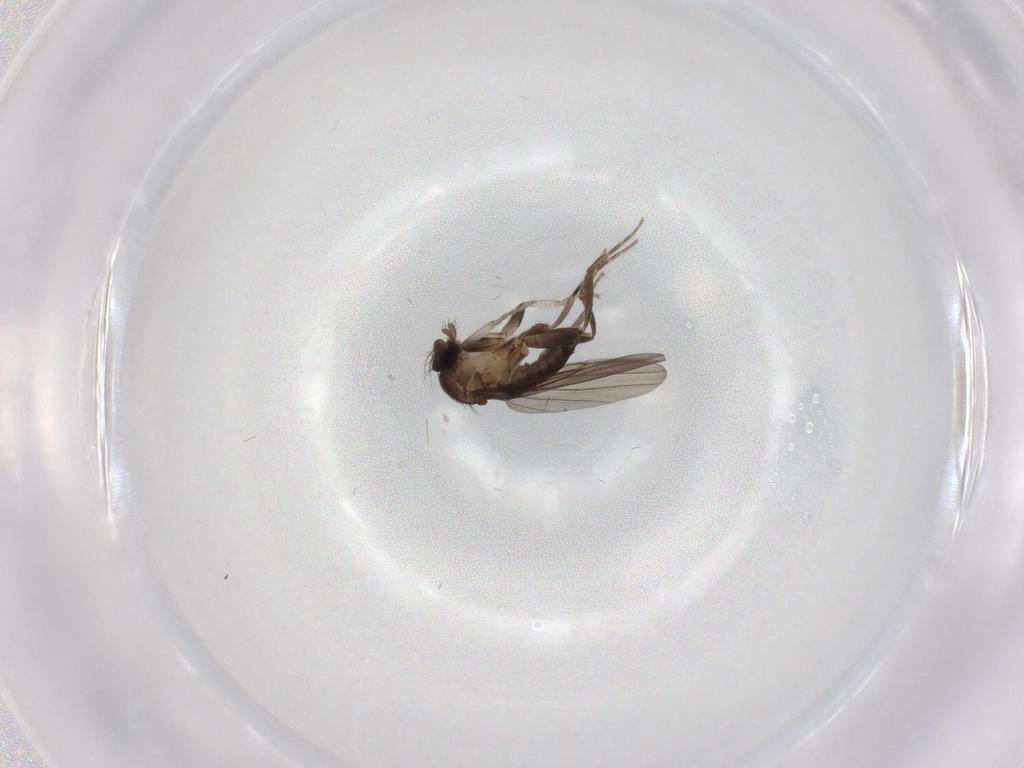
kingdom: Animalia
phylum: Arthropoda
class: Insecta
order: Diptera
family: Phoridae
